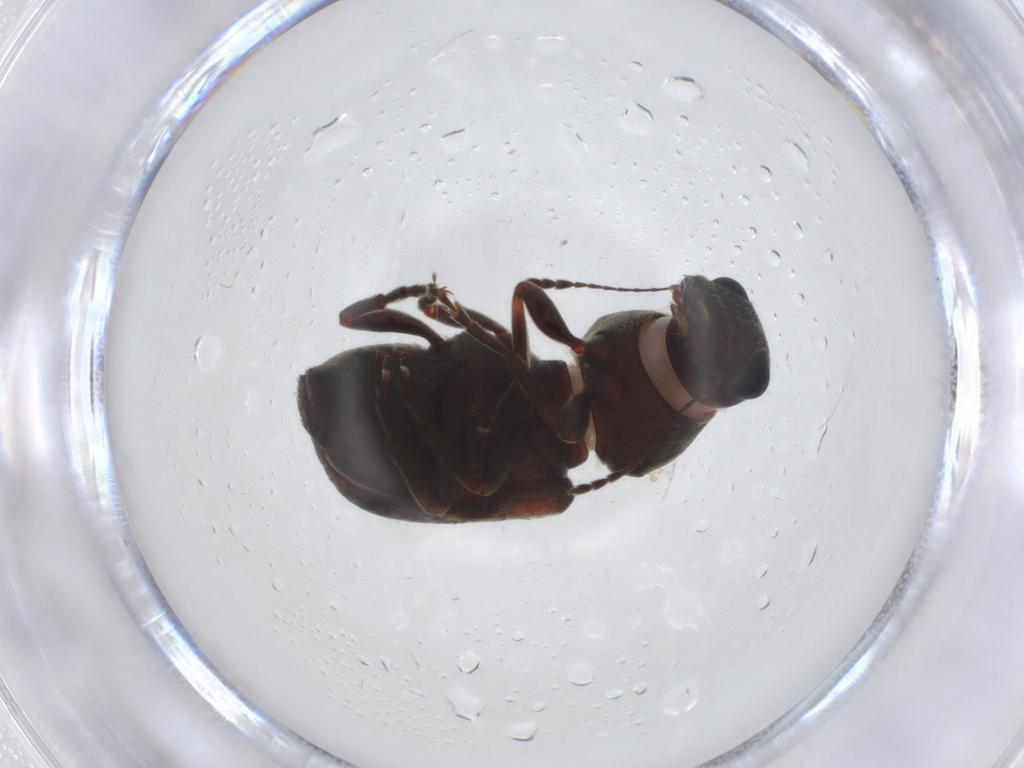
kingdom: Animalia
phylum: Arthropoda
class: Insecta
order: Coleoptera
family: Anthribidae
